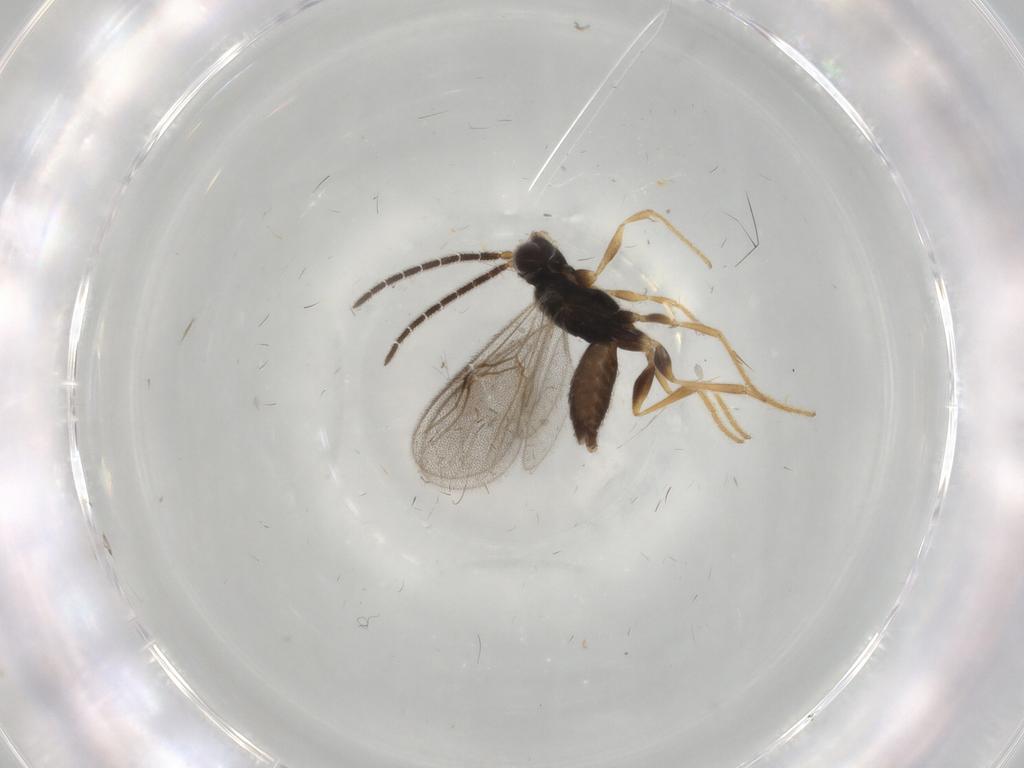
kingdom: Animalia
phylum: Arthropoda
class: Insecta
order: Hymenoptera
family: Dryinidae
